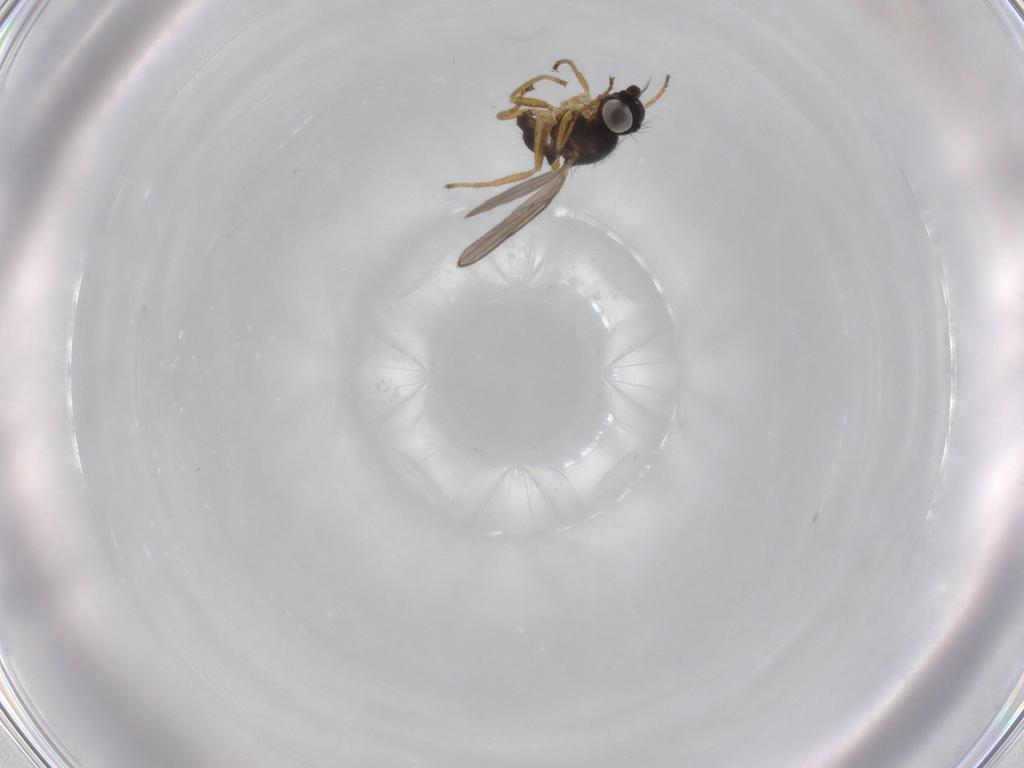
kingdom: Animalia
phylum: Arthropoda
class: Insecta
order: Diptera
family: Chloropidae
